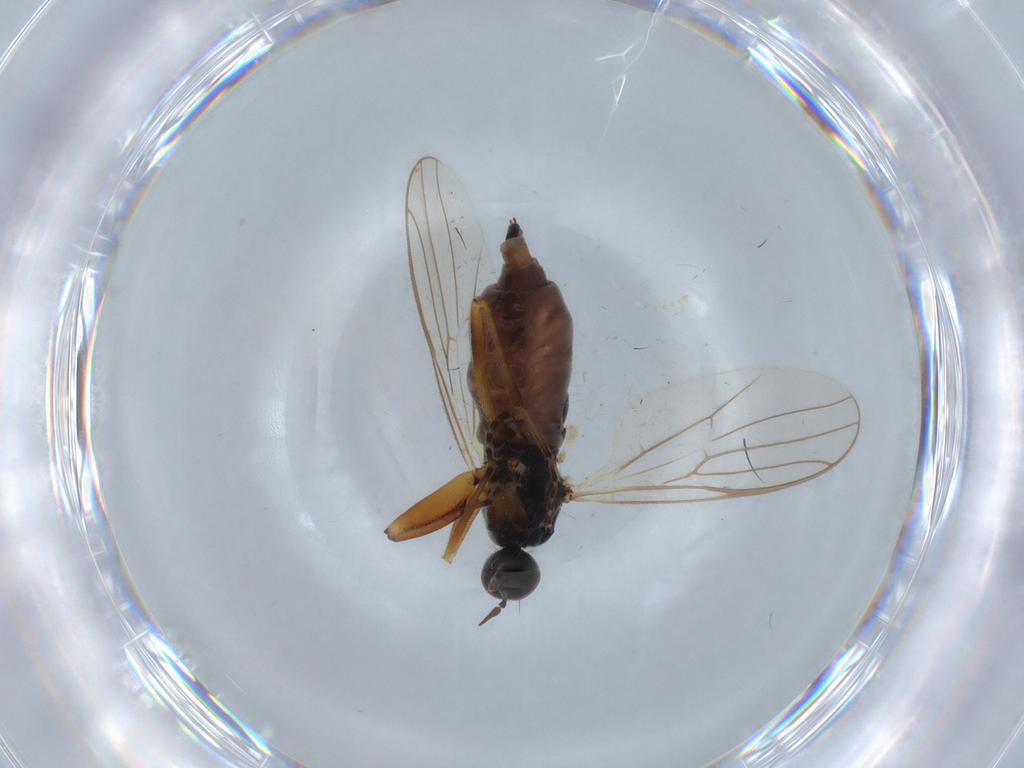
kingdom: Animalia
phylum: Arthropoda
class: Insecta
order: Diptera
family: Hybotidae
